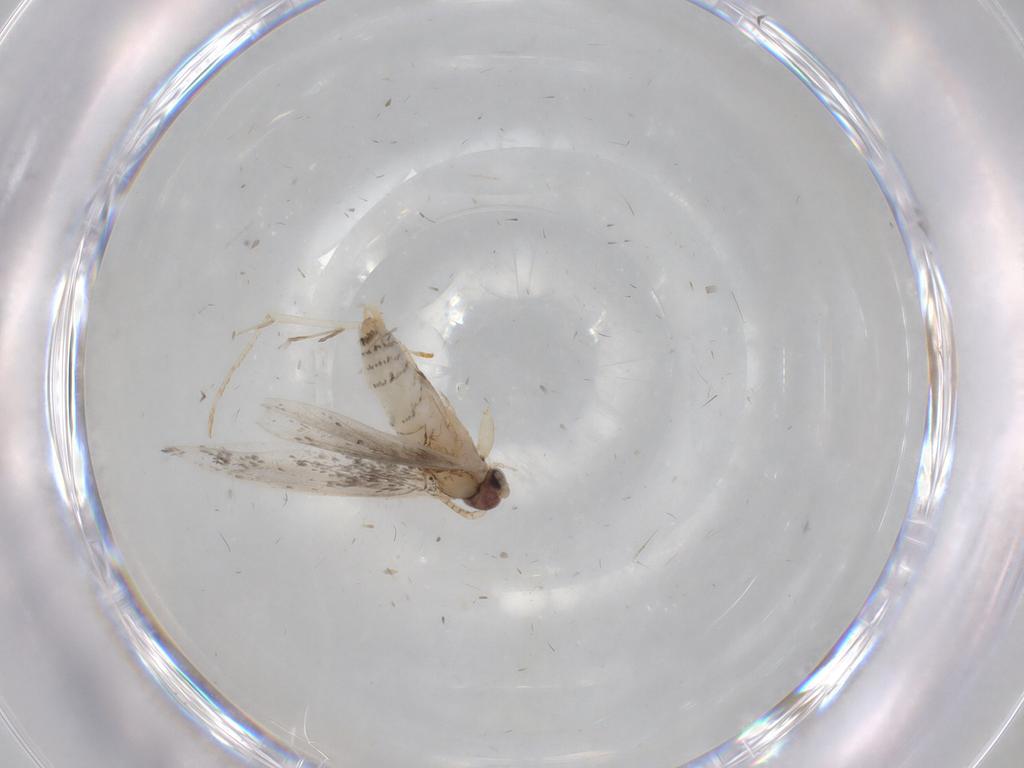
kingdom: Animalia
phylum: Arthropoda
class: Insecta
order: Lepidoptera
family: Tineidae
